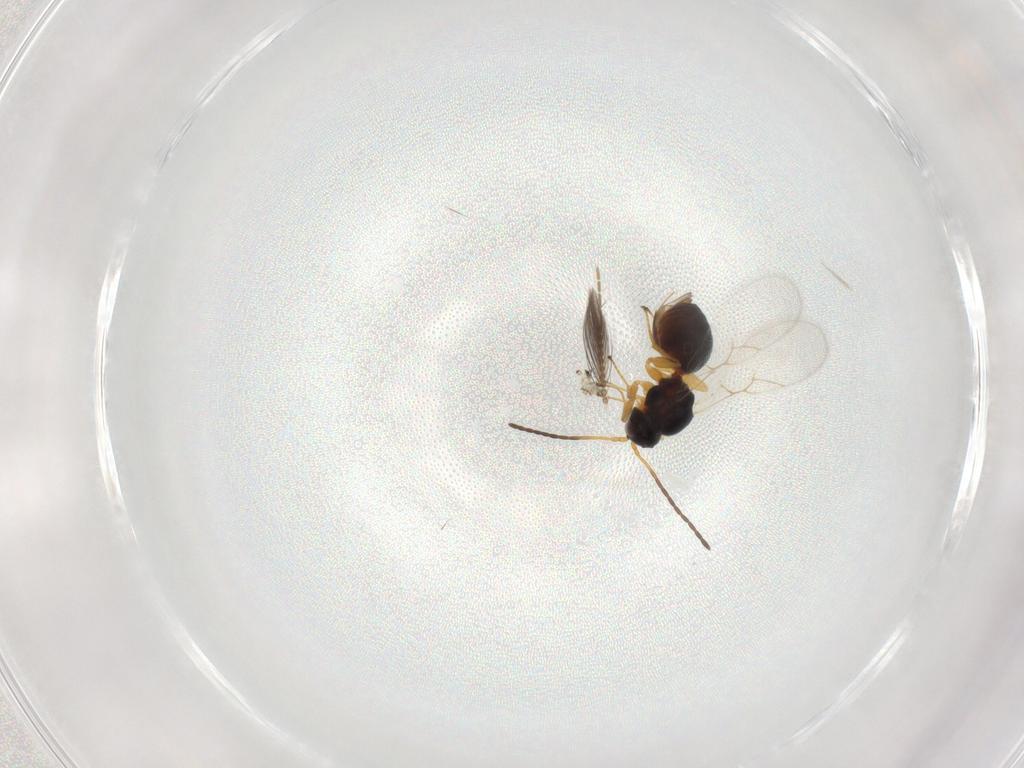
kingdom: Animalia
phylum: Arthropoda
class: Insecta
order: Hymenoptera
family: Figitidae
